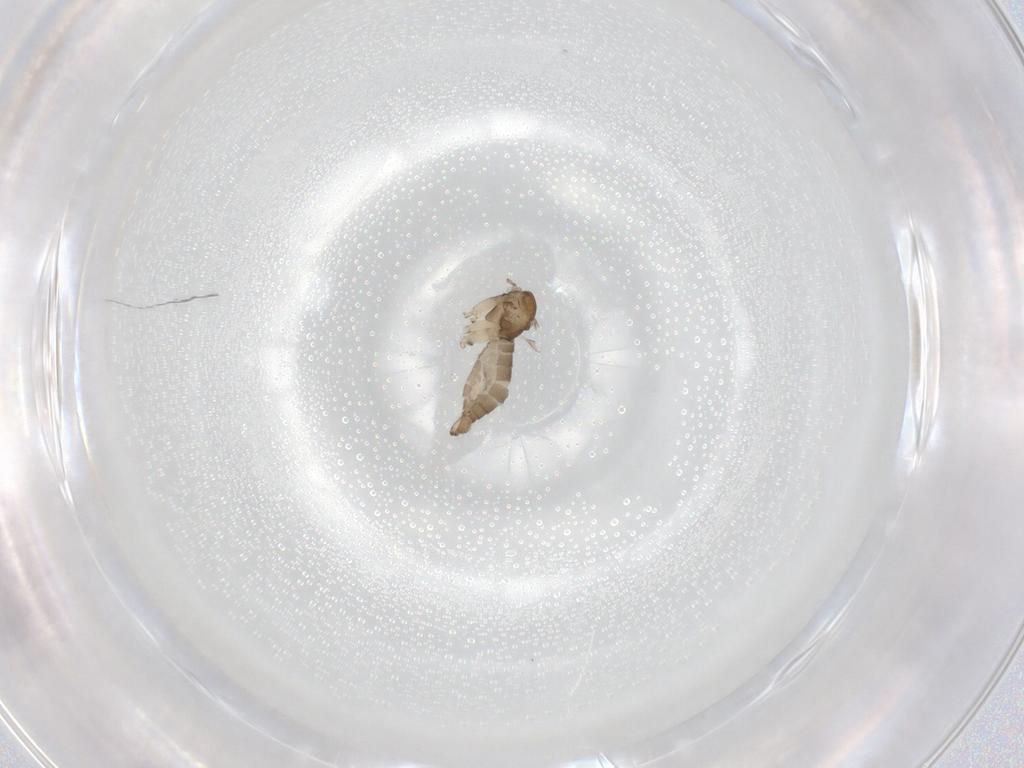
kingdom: Animalia
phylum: Arthropoda
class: Insecta
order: Diptera
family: Sciaridae
